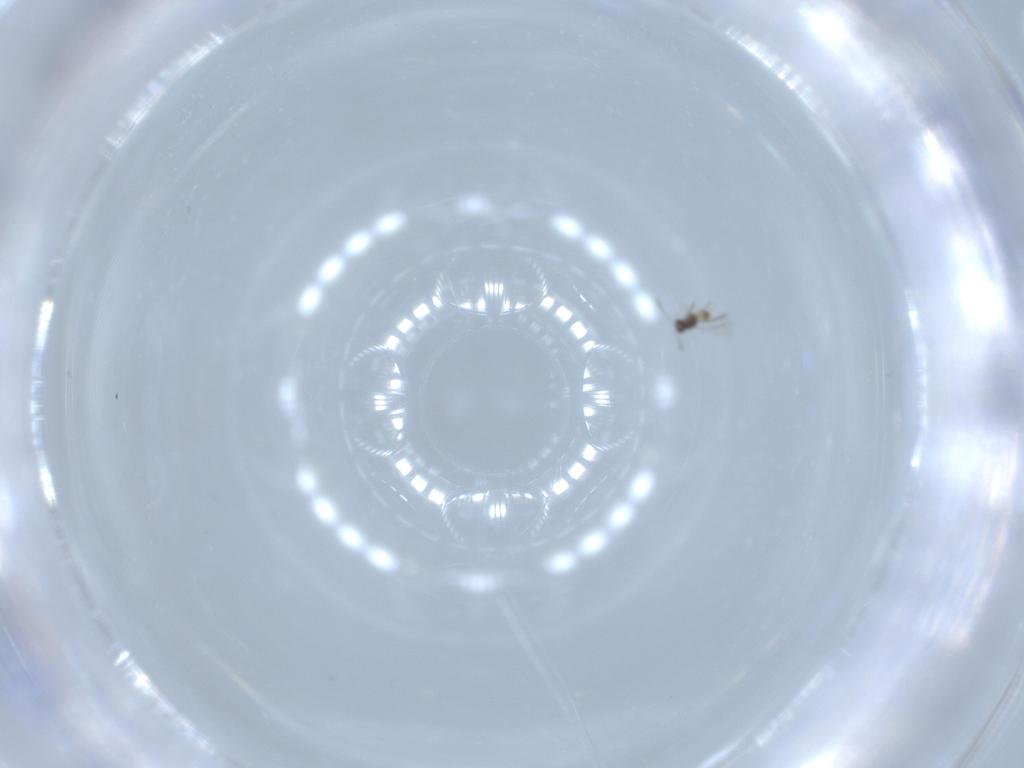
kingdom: Animalia
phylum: Arthropoda
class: Insecta
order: Hymenoptera
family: Mymaridae
